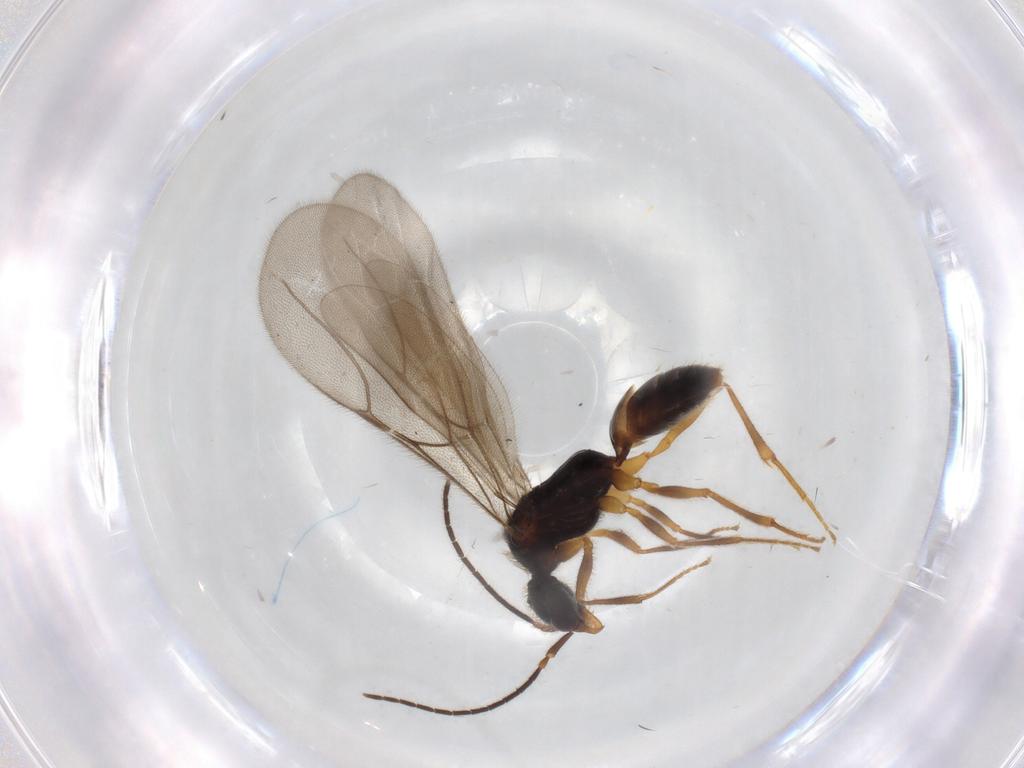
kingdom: Animalia
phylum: Arthropoda
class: Insecta
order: Hymenoptera
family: Bethylidae
